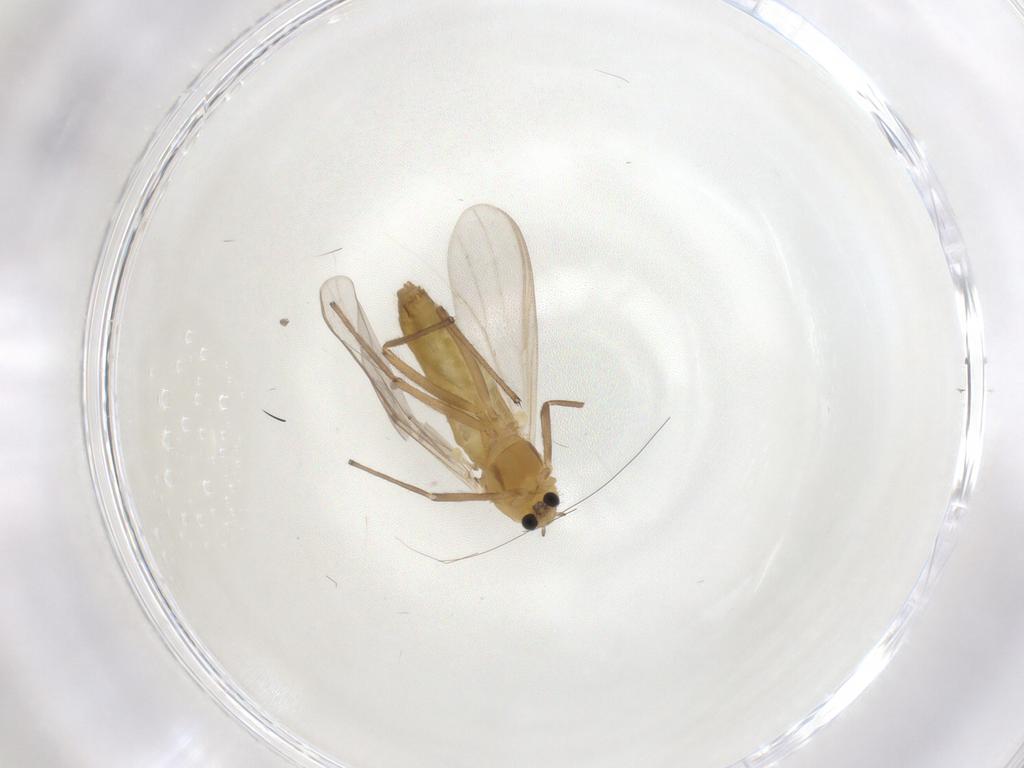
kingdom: Animalia
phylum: Arthropoda
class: Insecta
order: Diptera
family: Chironomidae
